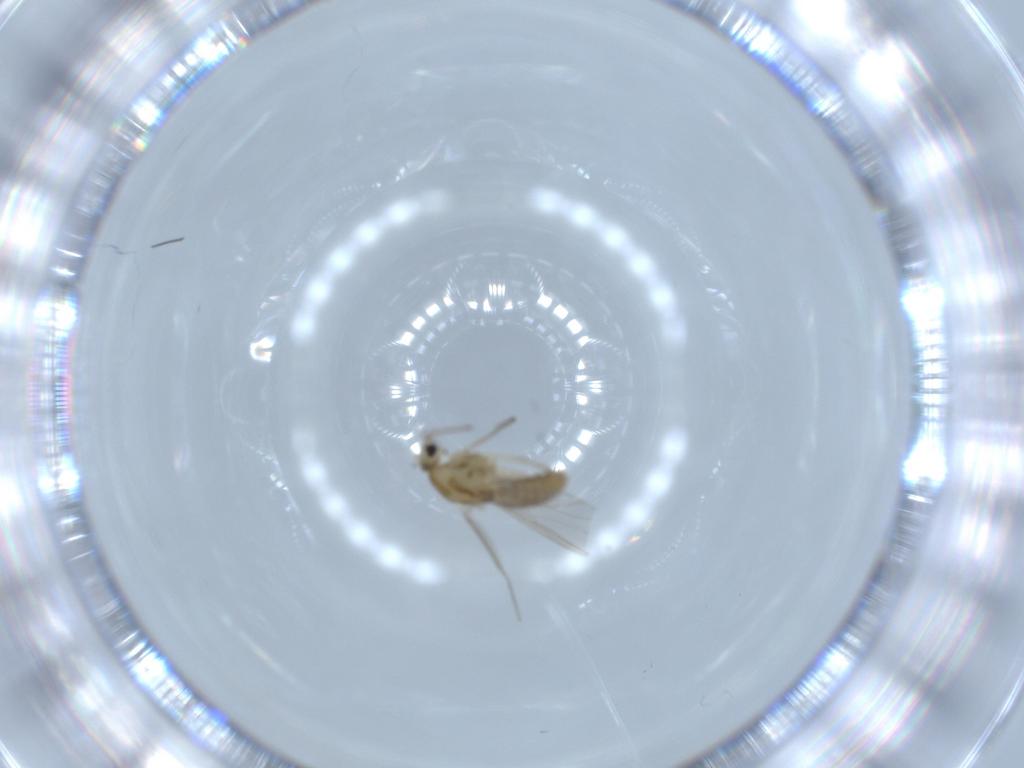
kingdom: Animalia
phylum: Arthropoda
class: Insecta
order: Diptera
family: Chironomidae
